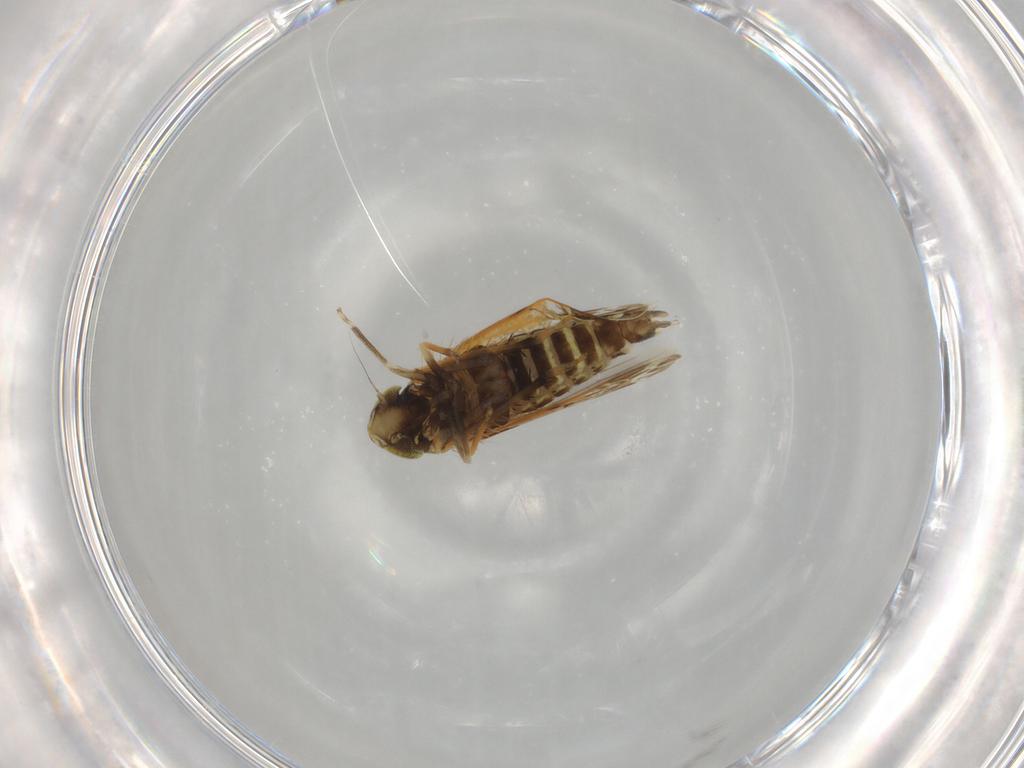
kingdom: Animalia
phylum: Arthropoda
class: Insecta
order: Hemiptera
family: Cicadellidae
